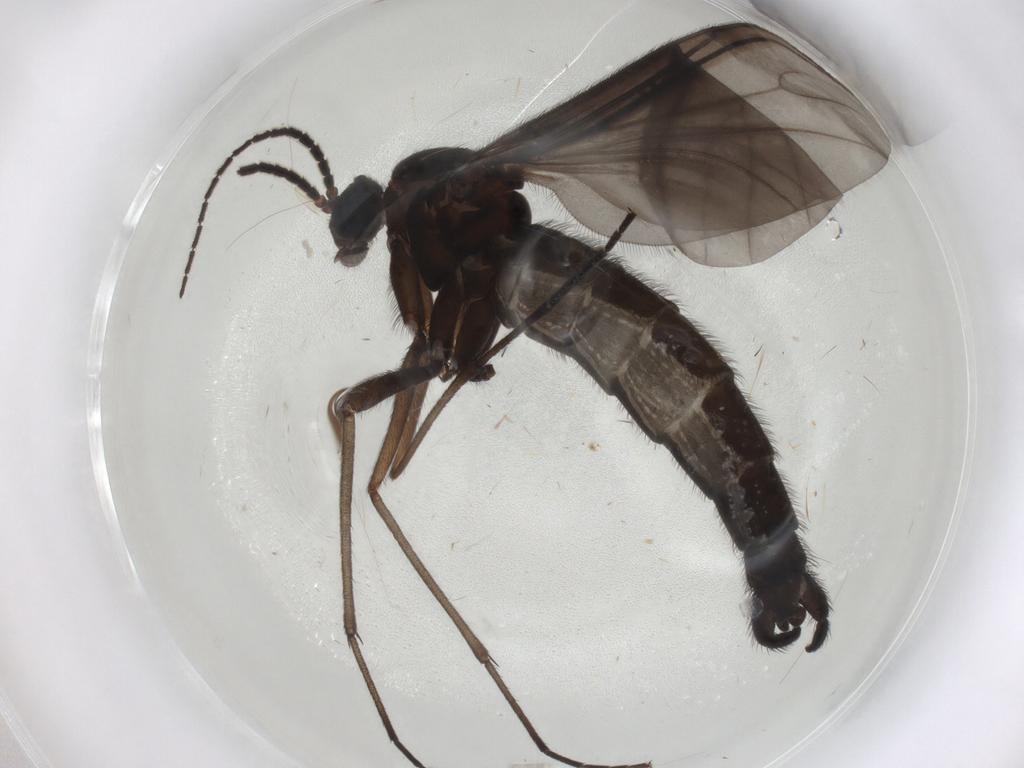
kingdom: Animalia
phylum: Arthropoda
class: Insecta
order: Diptera
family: Sciaridae
